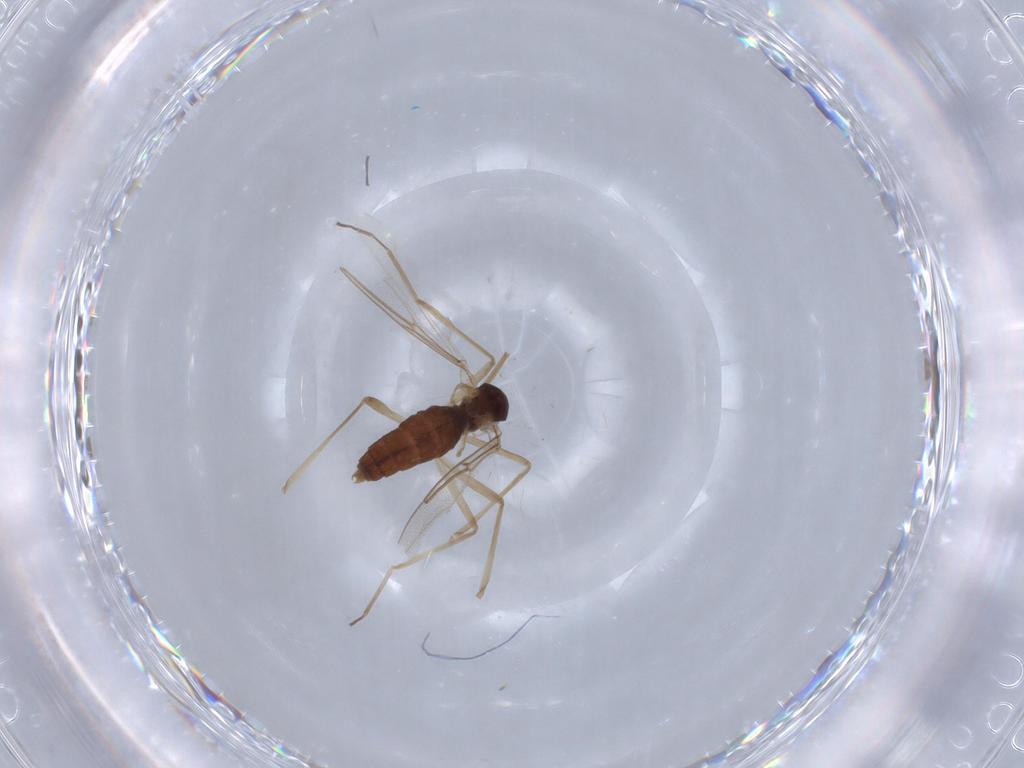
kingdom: Animalia
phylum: Arthropoda
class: Insecta
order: Diptera
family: Cecidomyiidae
